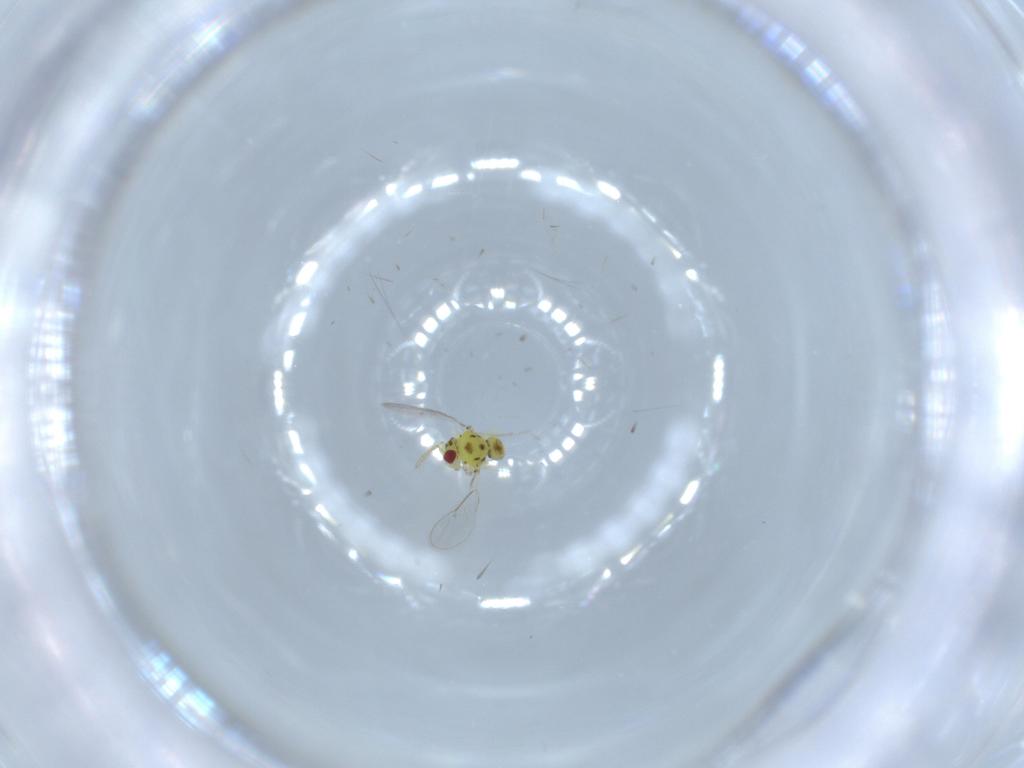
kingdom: Animalia
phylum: Arthropoda
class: Insecta
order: Hymenoptera
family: Eulophidae
